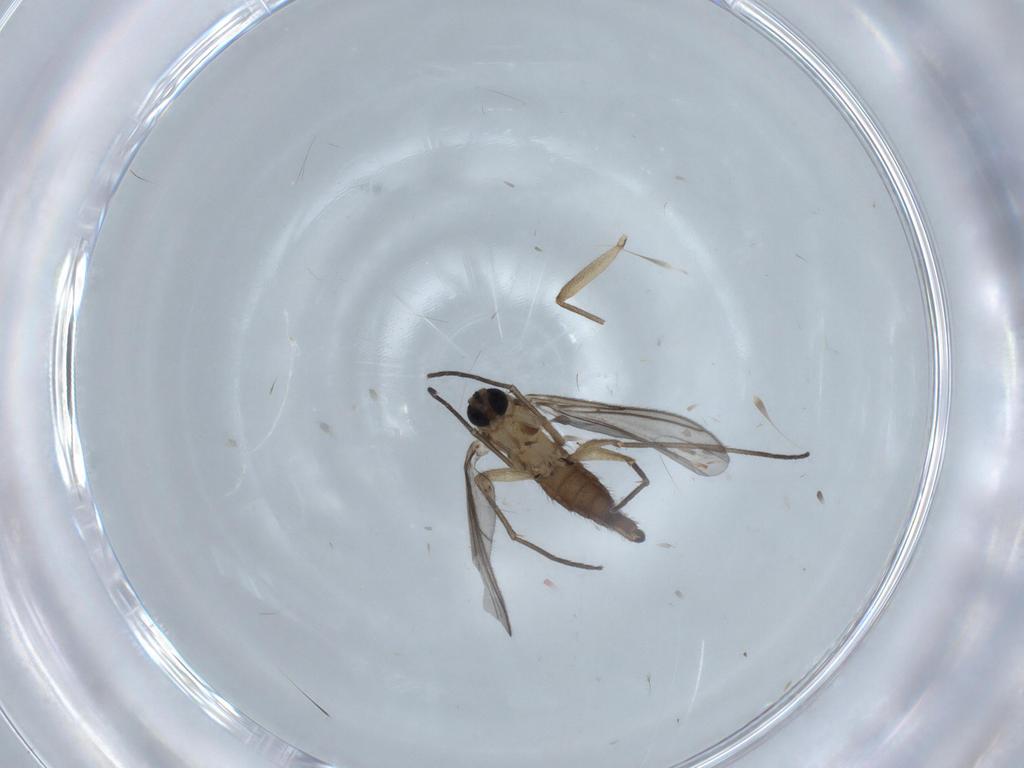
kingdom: Animalia
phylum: Arthropoda
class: Insecta
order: Diptera
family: Sciaridae
